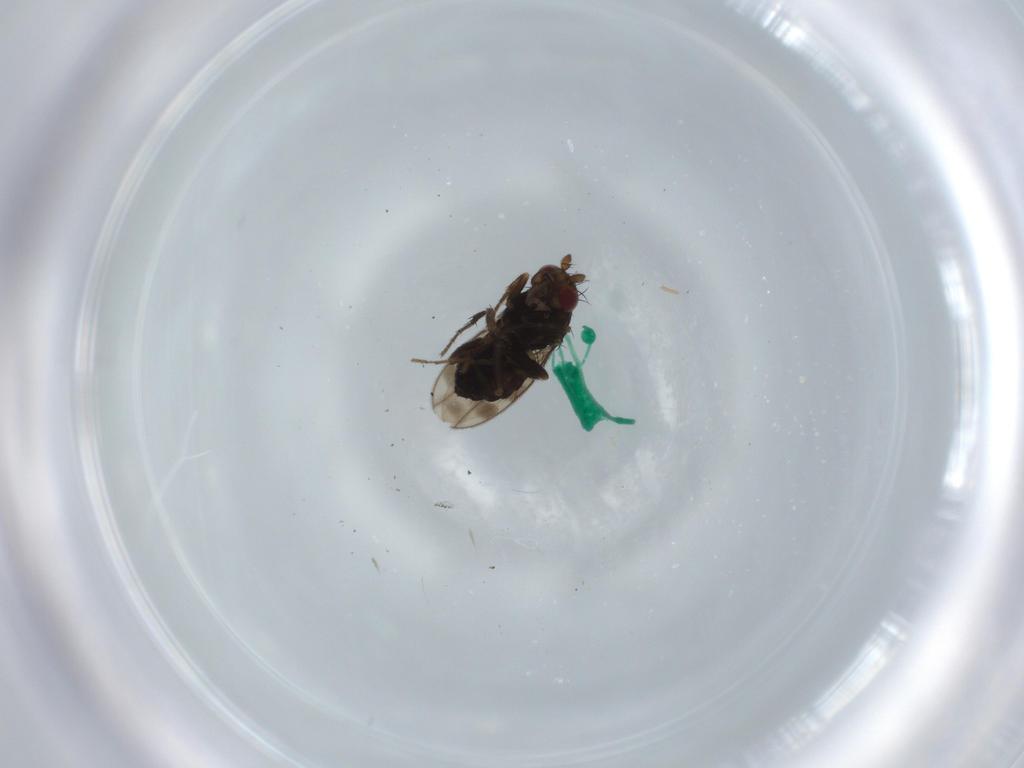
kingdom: Animalia
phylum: Arthropoda
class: Insecta
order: Diptera
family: Sphaeroceridae
